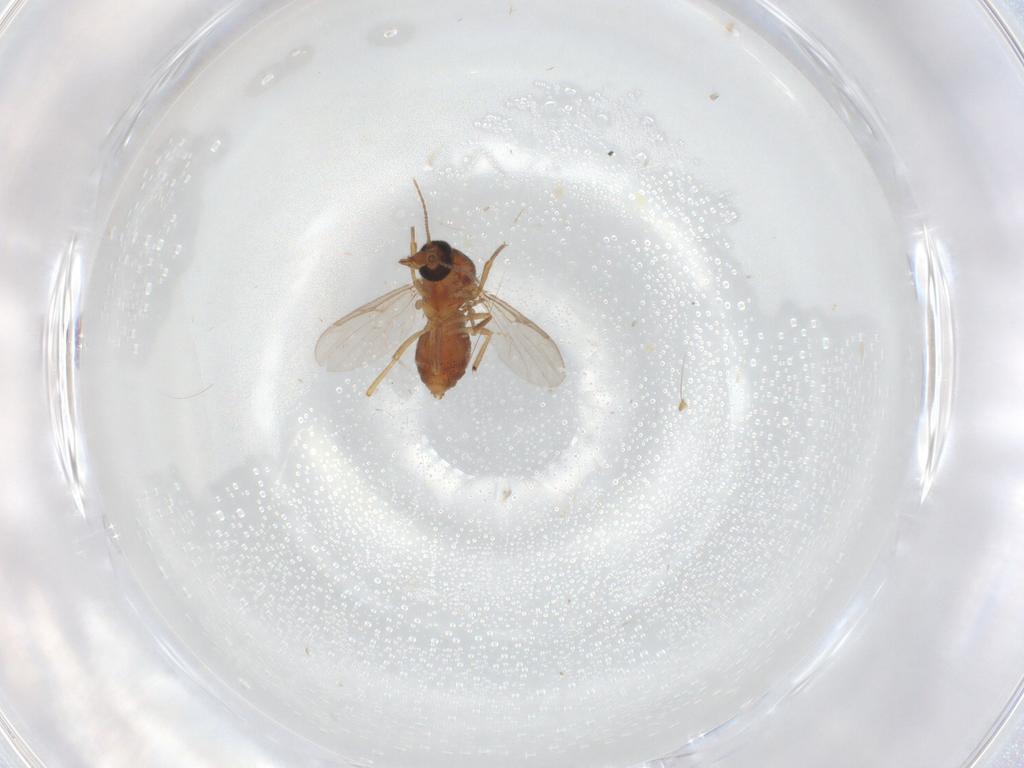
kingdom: Animalia
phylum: Arthropoda
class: Insecta
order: Diptera
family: Ceratopogonidae
